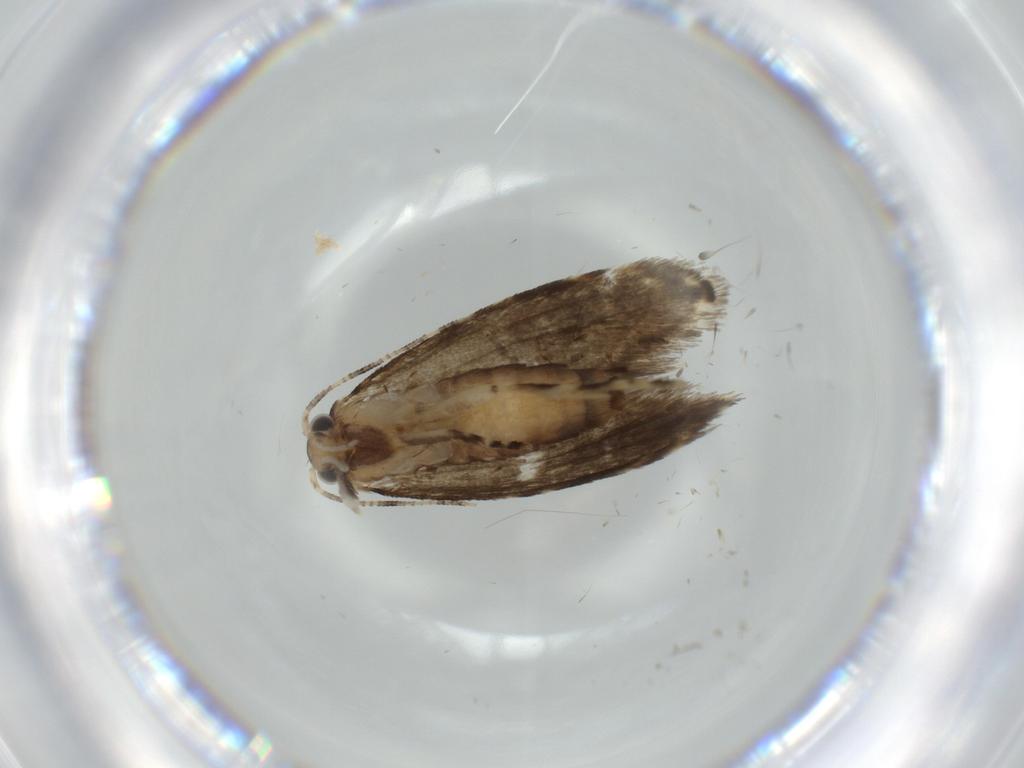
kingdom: Animalia
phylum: Arthropoda
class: Insecta
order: Lepidoptera
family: Tineidae
